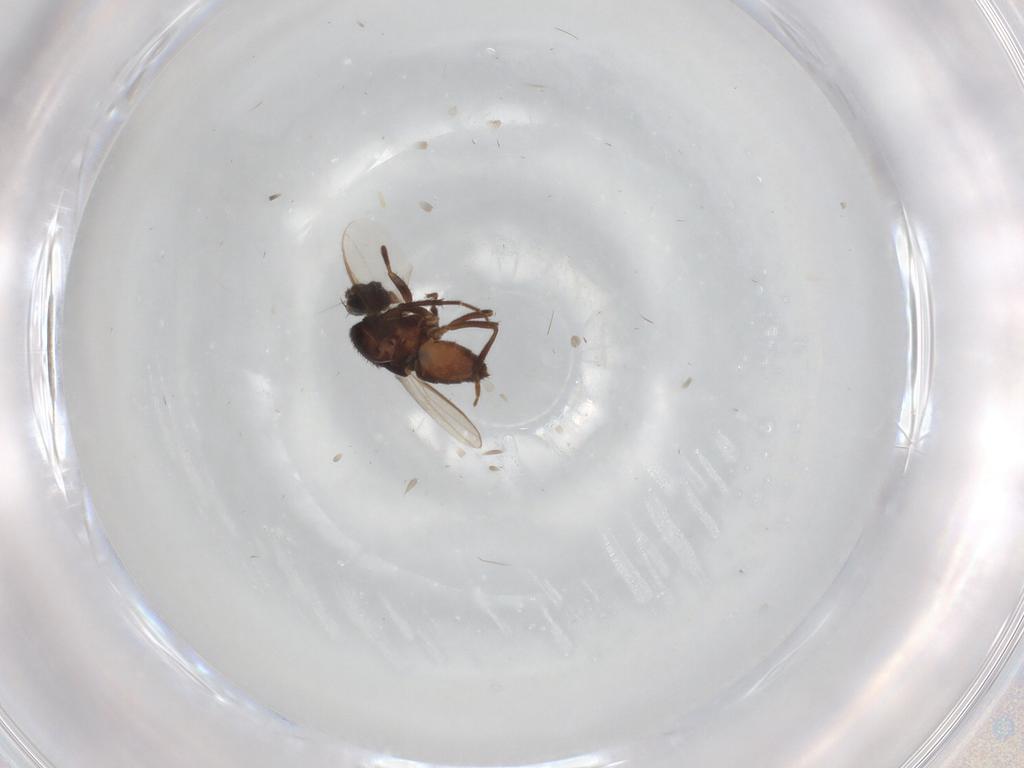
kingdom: Animalia
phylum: Arthropoda
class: Insecta
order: Diptera
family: Sphaeroceridae
